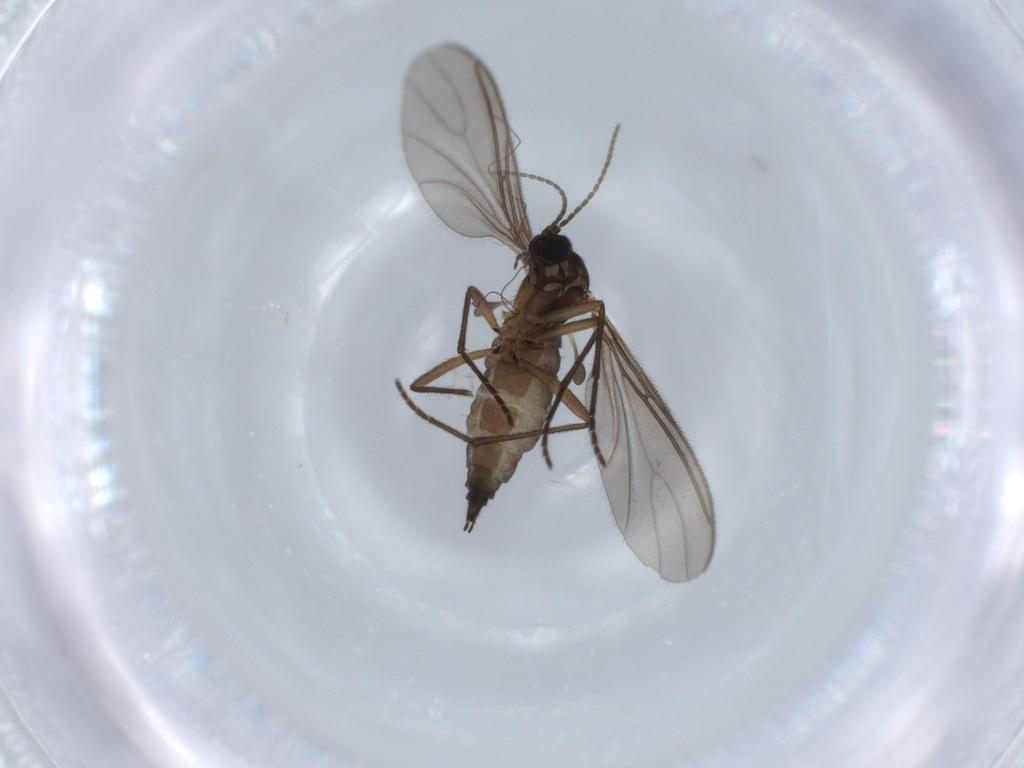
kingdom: Animalia
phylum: Arthropoda
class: Insecta
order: Diptera
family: Sciaridae
